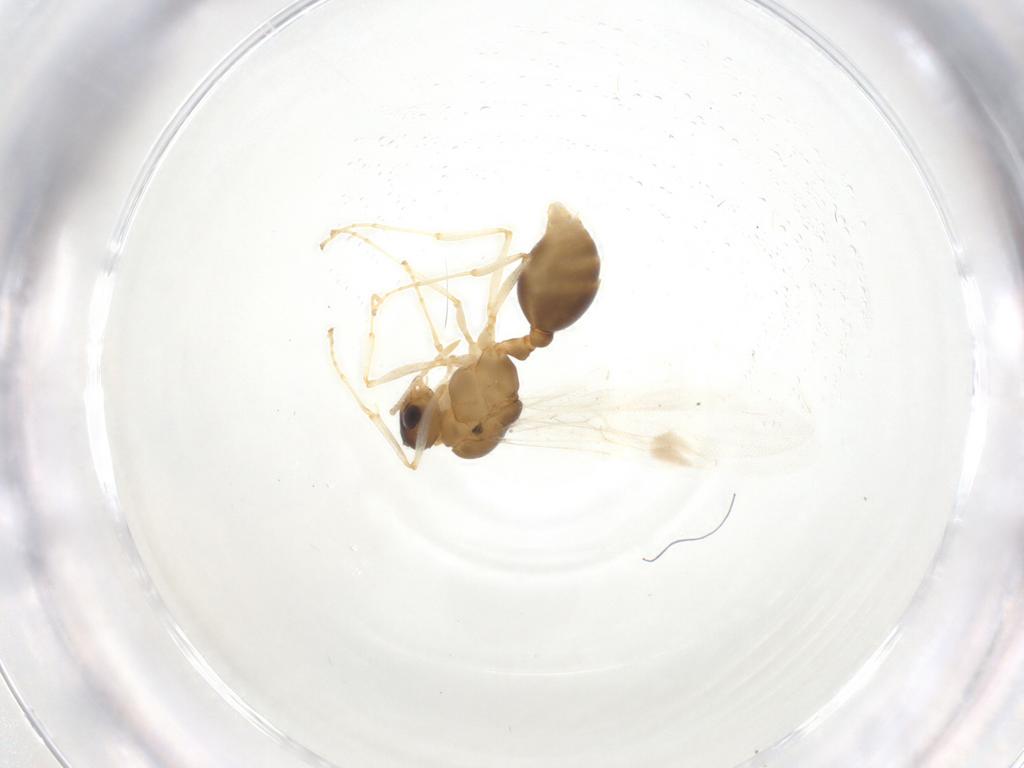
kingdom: Animalia
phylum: Arthropoda
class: Insecta
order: Hymenoptera
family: Formicidae
